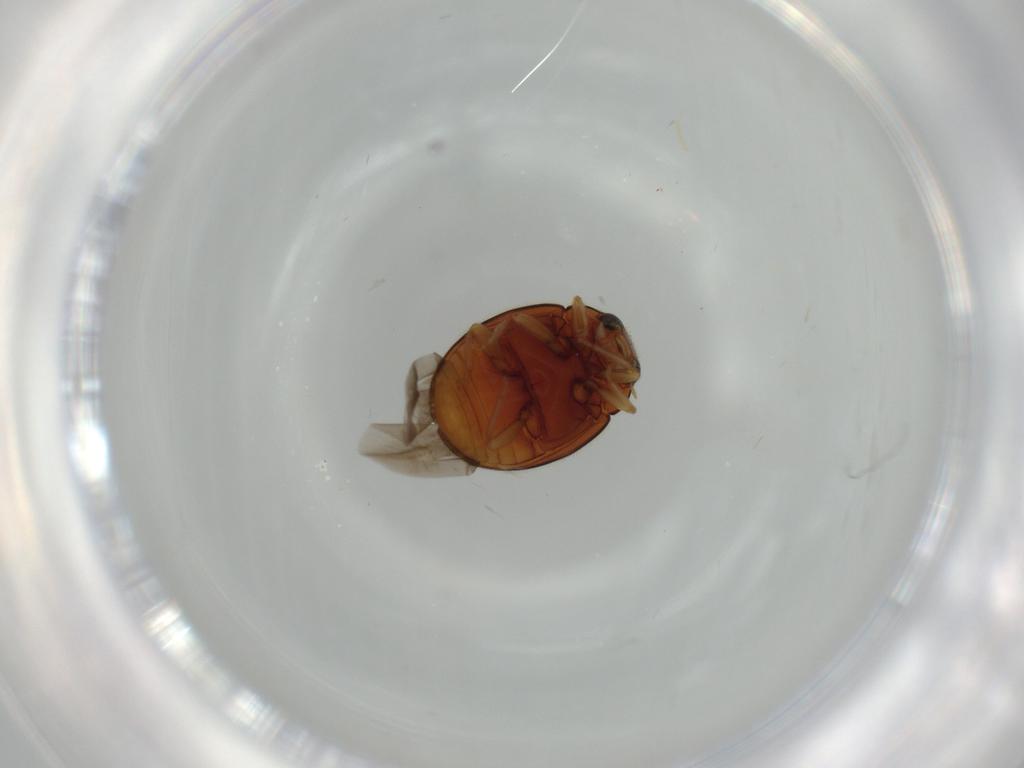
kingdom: Animalia
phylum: Arthropoda
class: Insecta
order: Coleoptera
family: Coccinellidae
